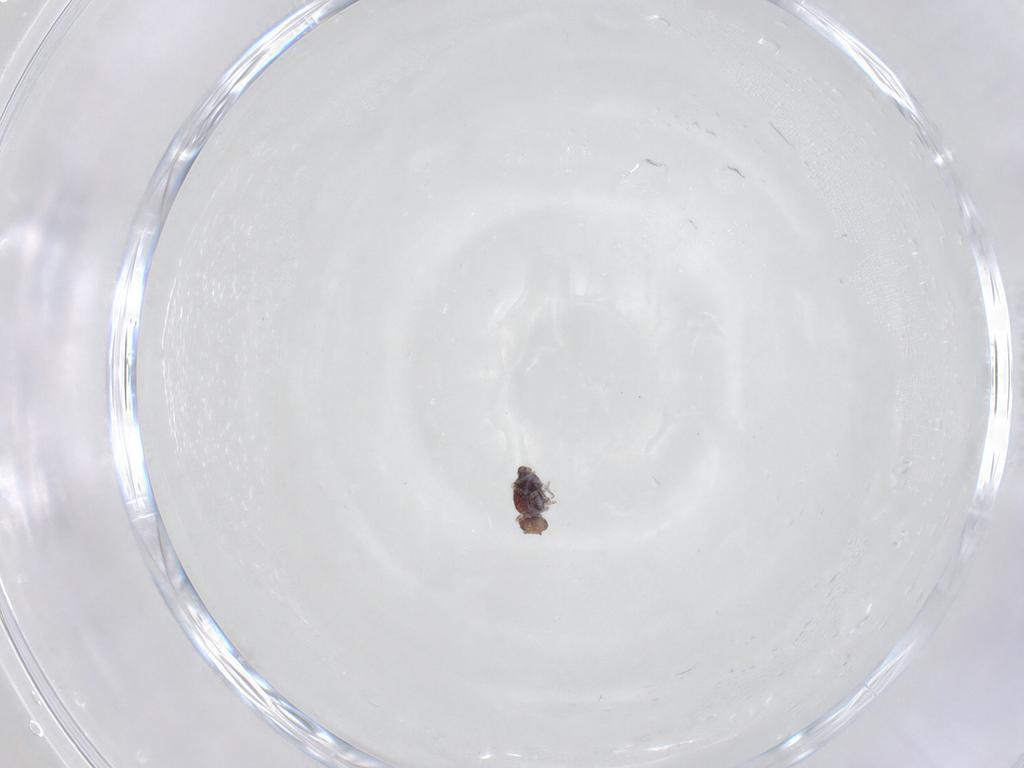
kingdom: Animalia
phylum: Arthropoda
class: Collembola
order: Symphypleona
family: Bourletiellidae
